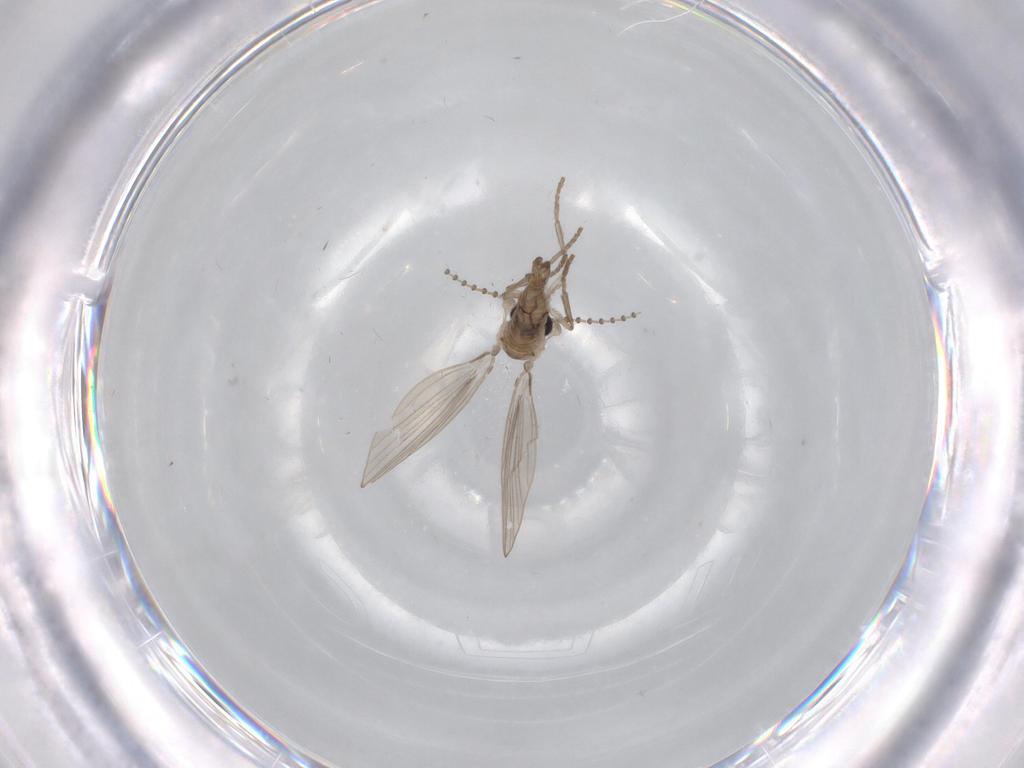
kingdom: Animalia
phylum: Arthropoda
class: Insecta
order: Diptera
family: Psychodidae
